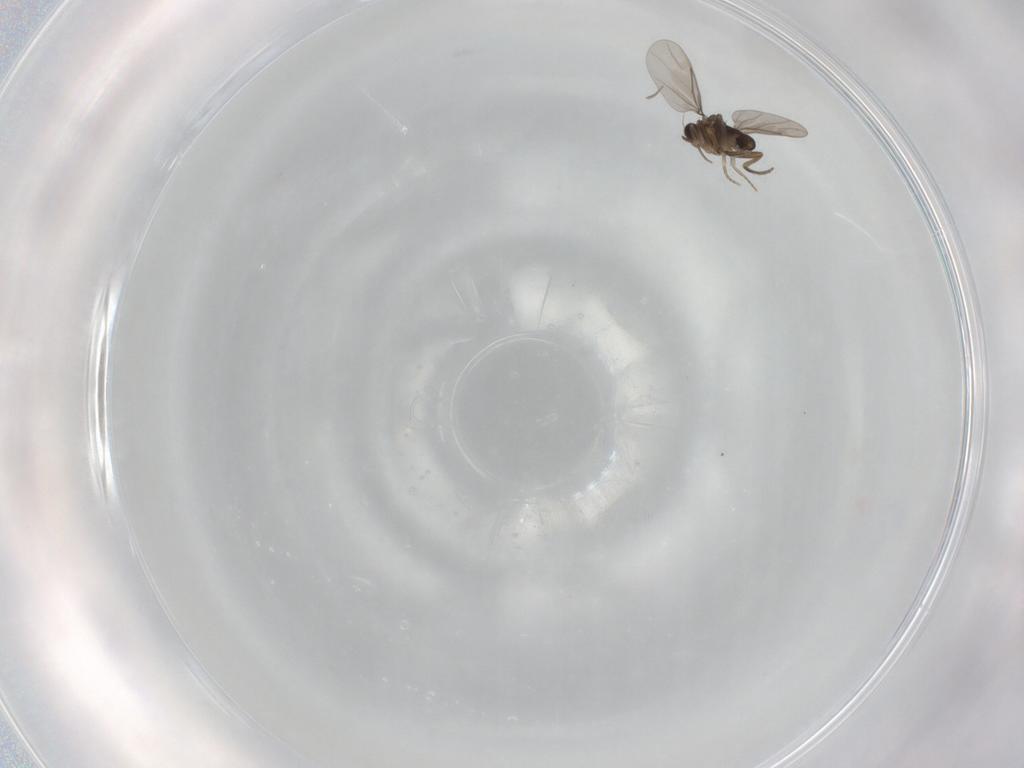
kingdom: Animalia
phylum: Arthropoda
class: Insecta
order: Diptera
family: Phoridae
